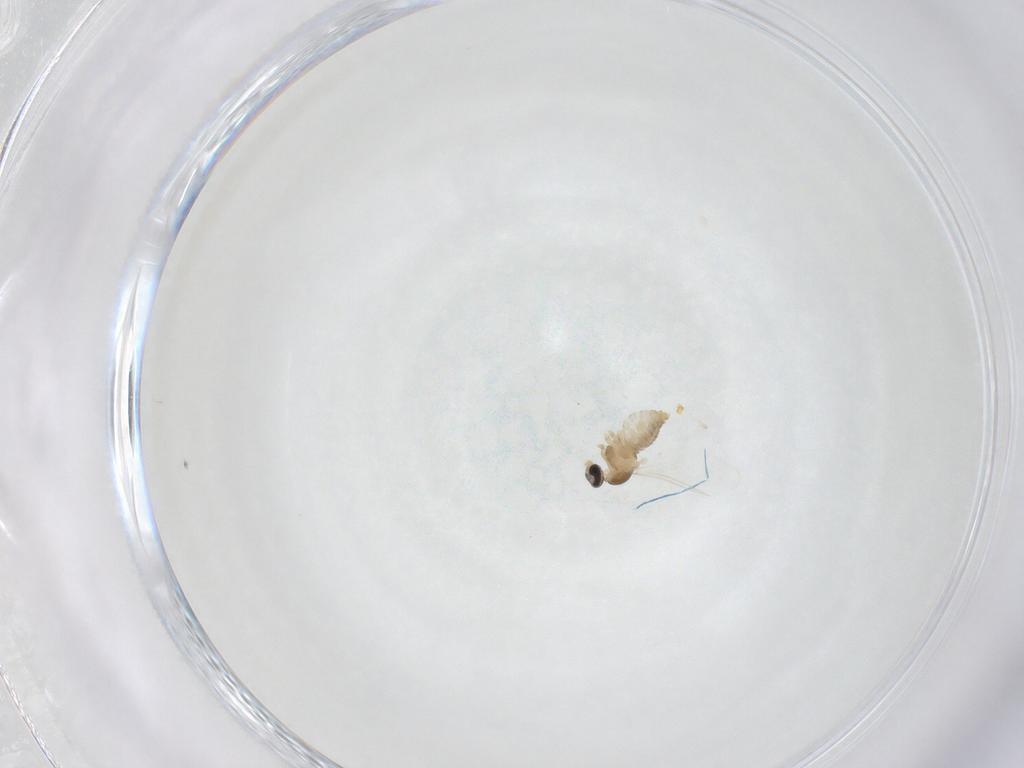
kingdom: Animalia
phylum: Arthropoda
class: Insecta
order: Diptera
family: Cecidomyiidae
